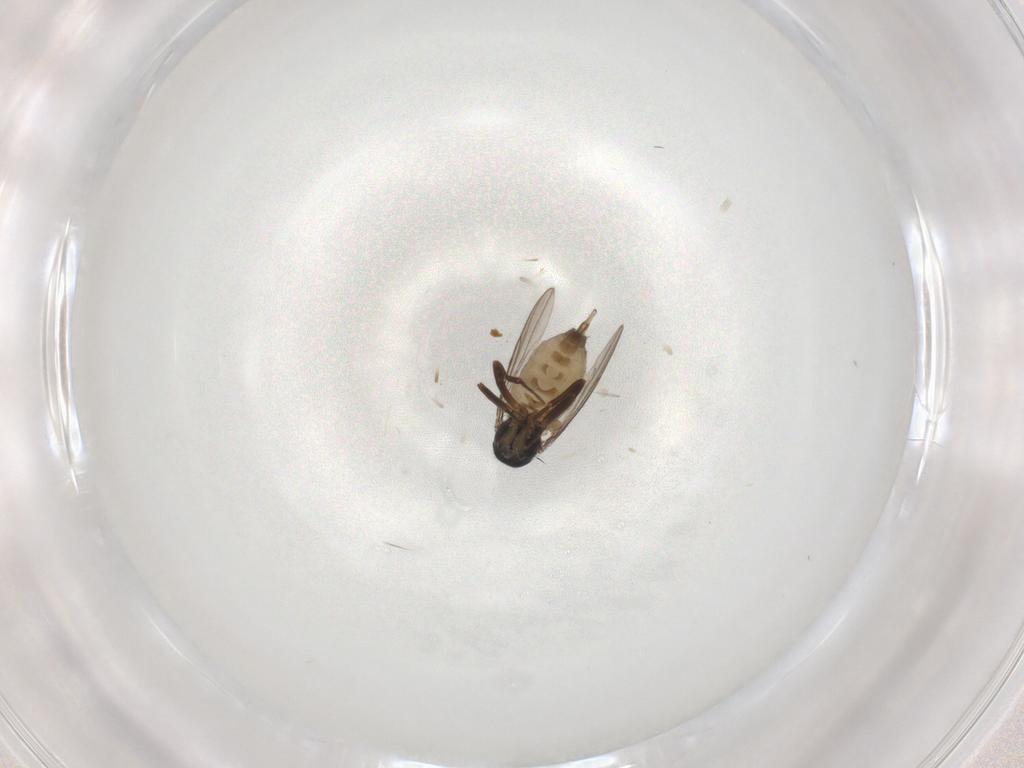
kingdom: Animalia
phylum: Arthropoda
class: Insecta
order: Diptera
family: Hybotidae
